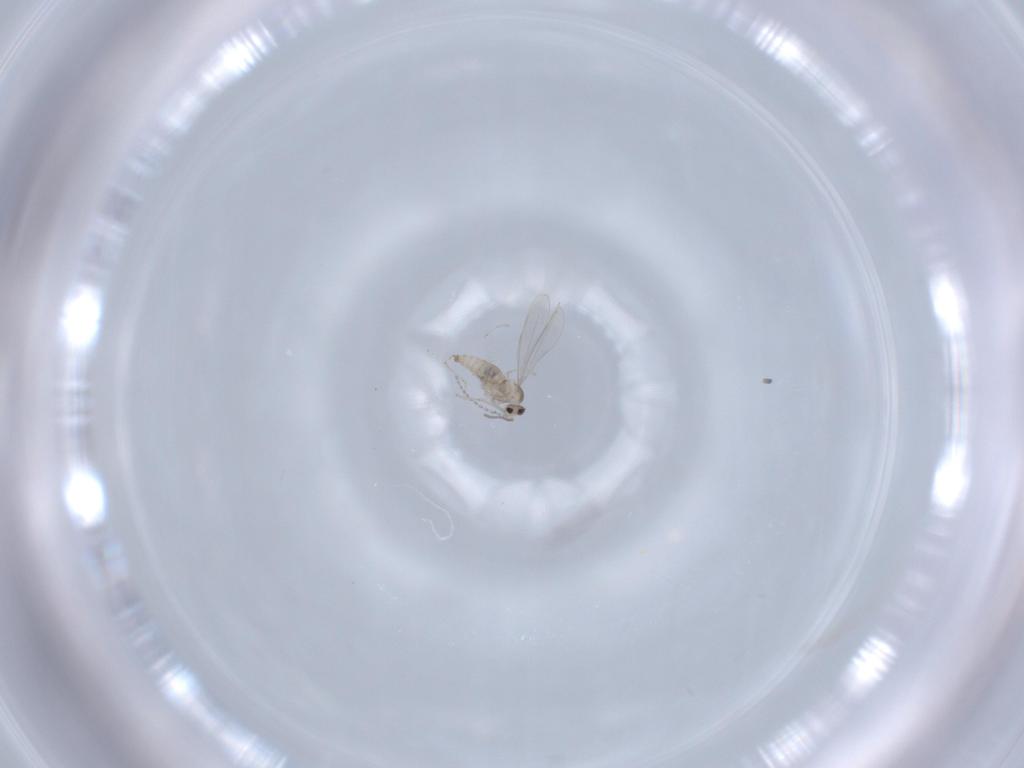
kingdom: Animalia
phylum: Arthropoda
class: Insecta
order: Diptera
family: Cecidomyiidae
